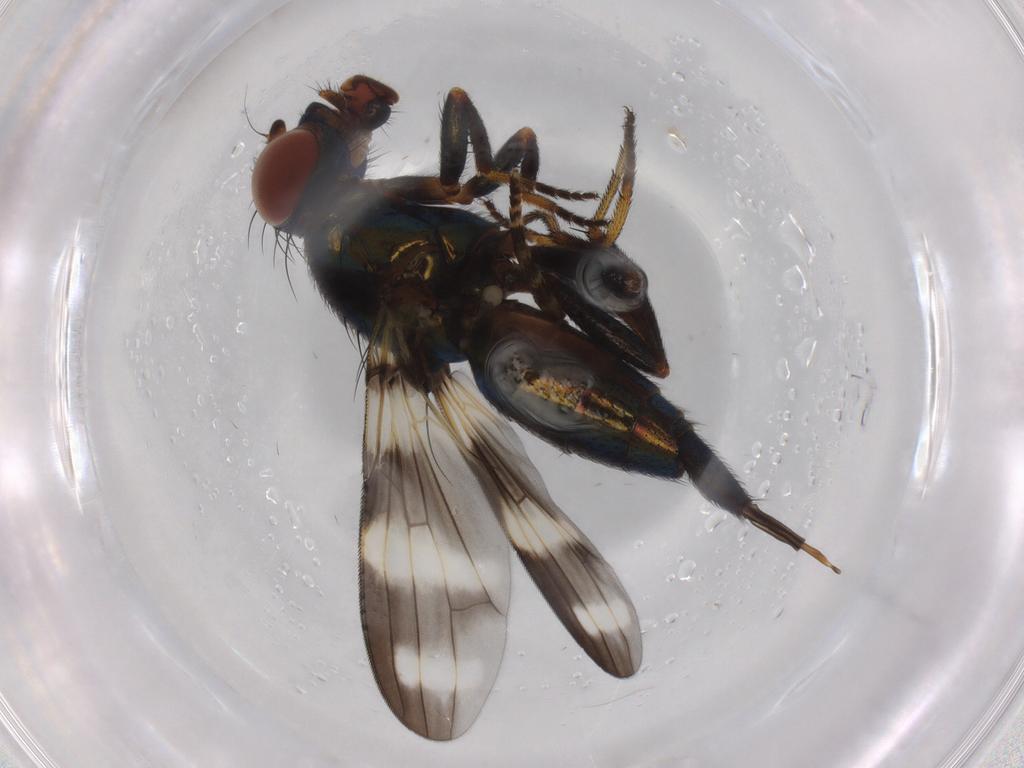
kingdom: Animalia
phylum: Arthropoda
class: Insecta
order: Diptera
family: Ulidiidae
